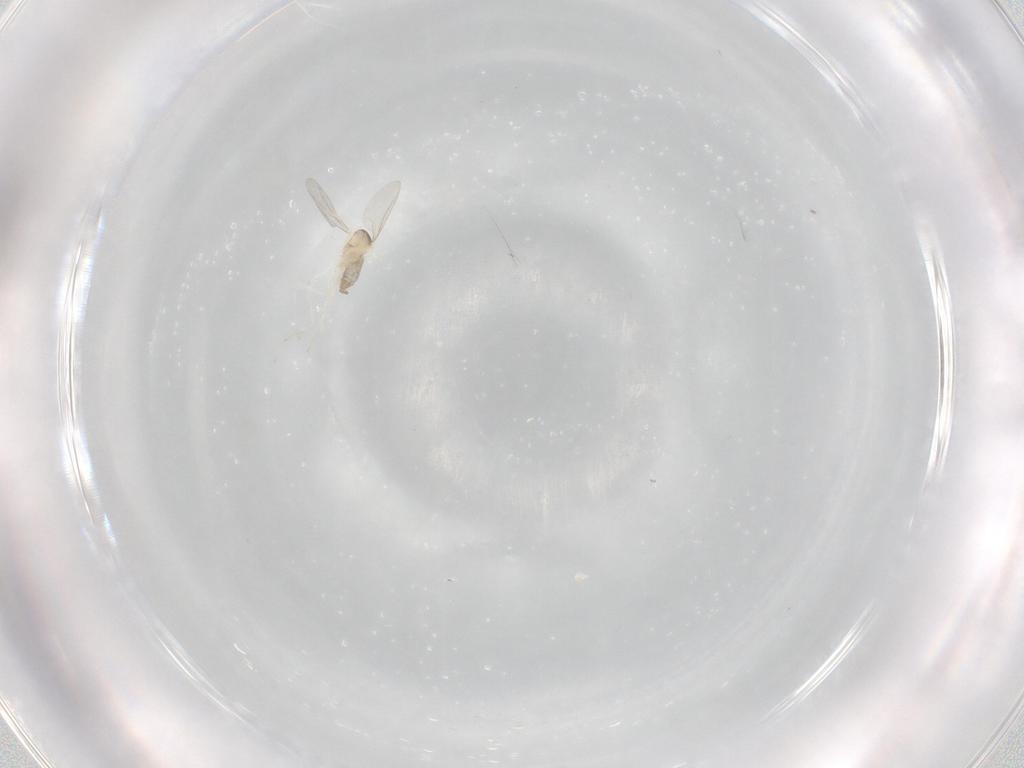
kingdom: Animalia
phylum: Arthropoda
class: Insecta
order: Diptera
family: Cecidomyiidae
